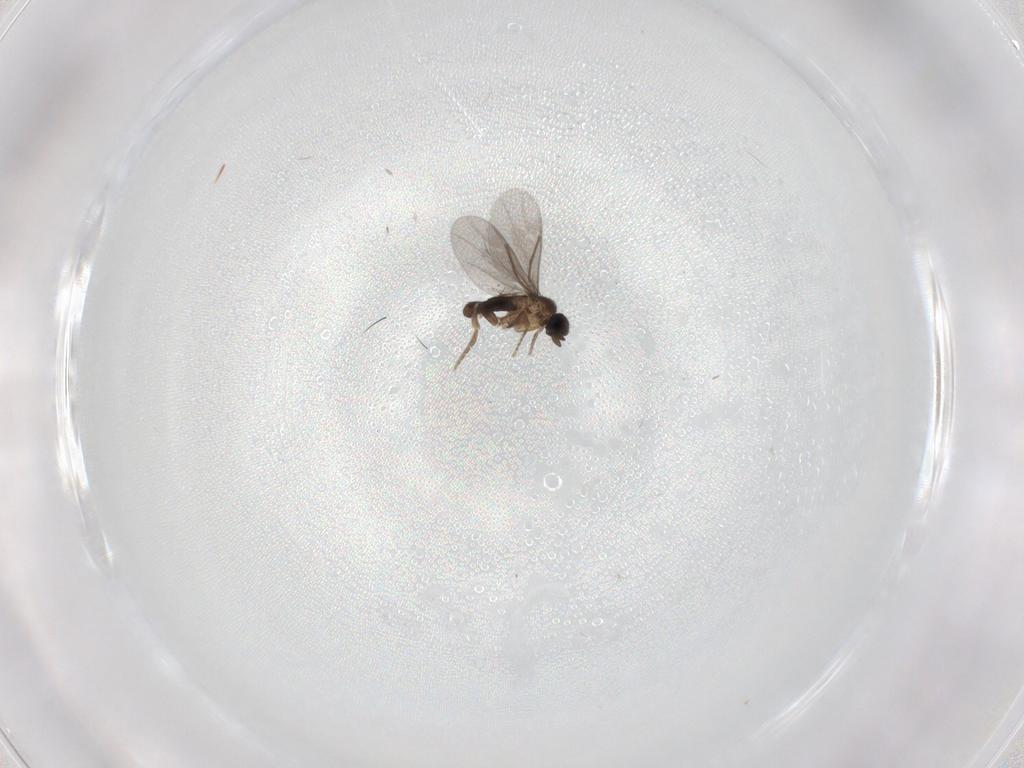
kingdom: Animalia
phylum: Arthropoda
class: Insecta
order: Diptera
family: Chironomidae
